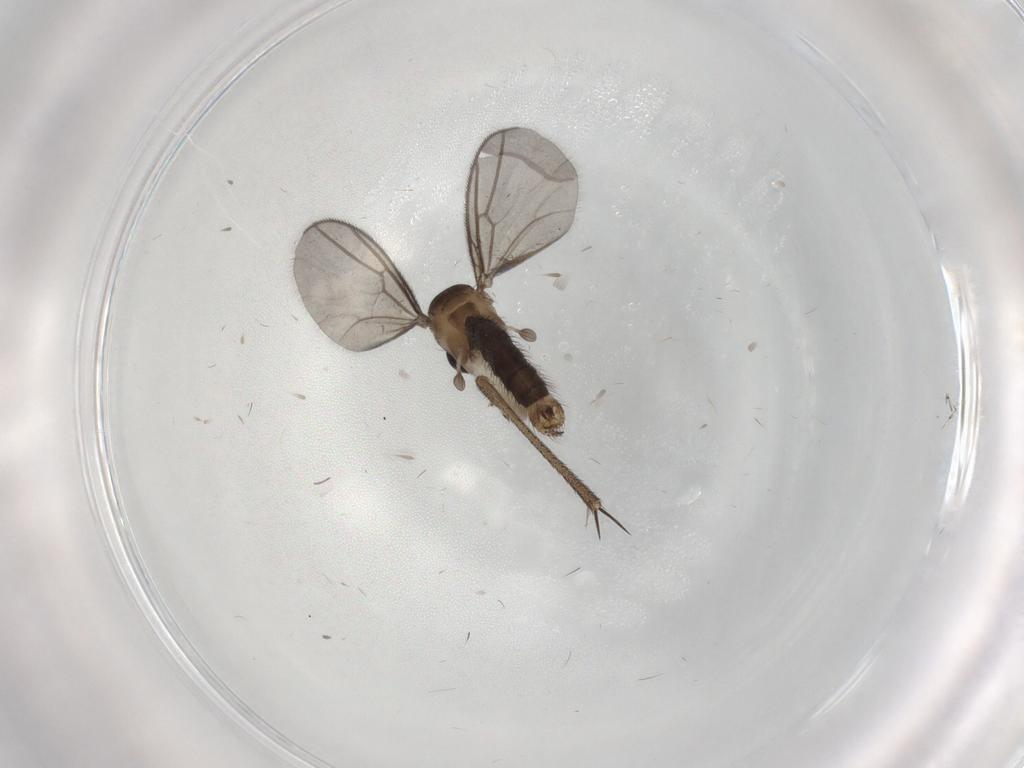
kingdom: Animalia
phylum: Arthropoda
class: Insecta
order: Diptera
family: Mycetophilidae
